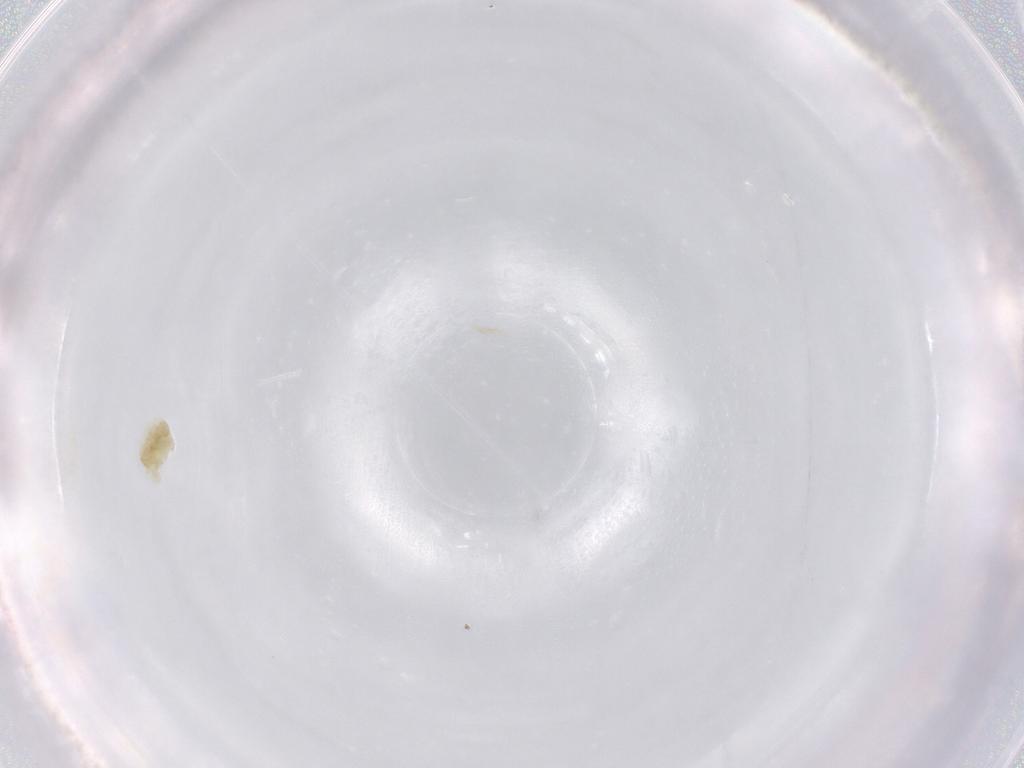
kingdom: Animalia
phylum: Arthropoda
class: Arachnida
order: Trombidiformes
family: Eupodidae
